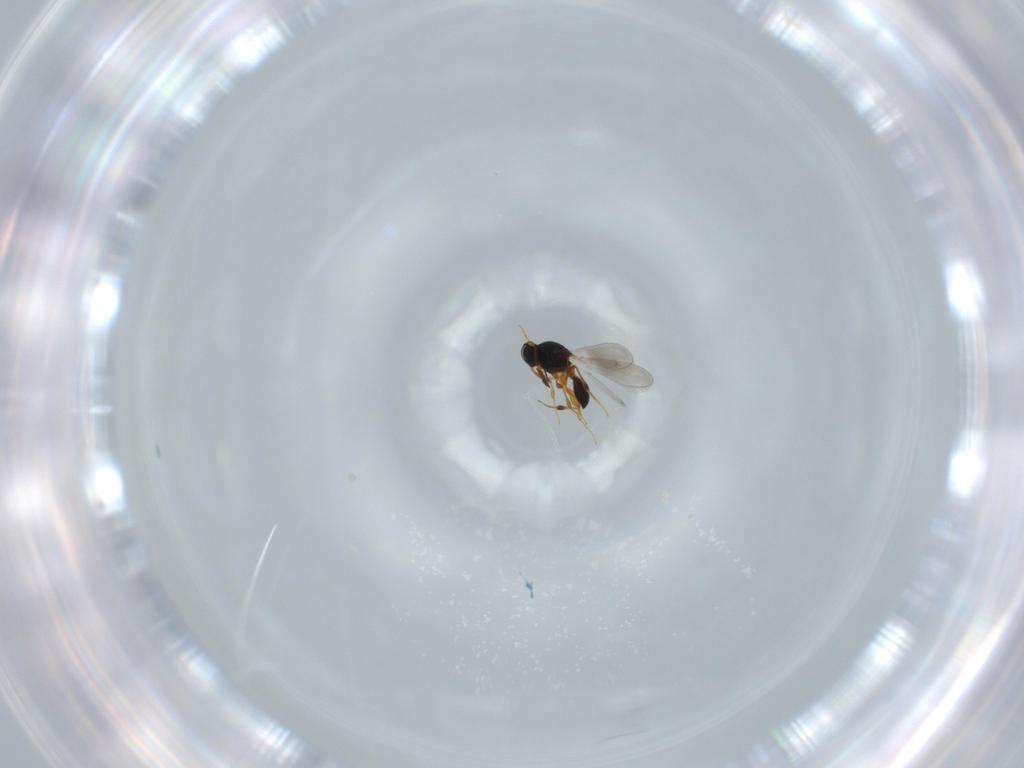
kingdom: Animalia
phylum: Arthropoda
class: Insecta
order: Hymenoptera
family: Platygastridae
